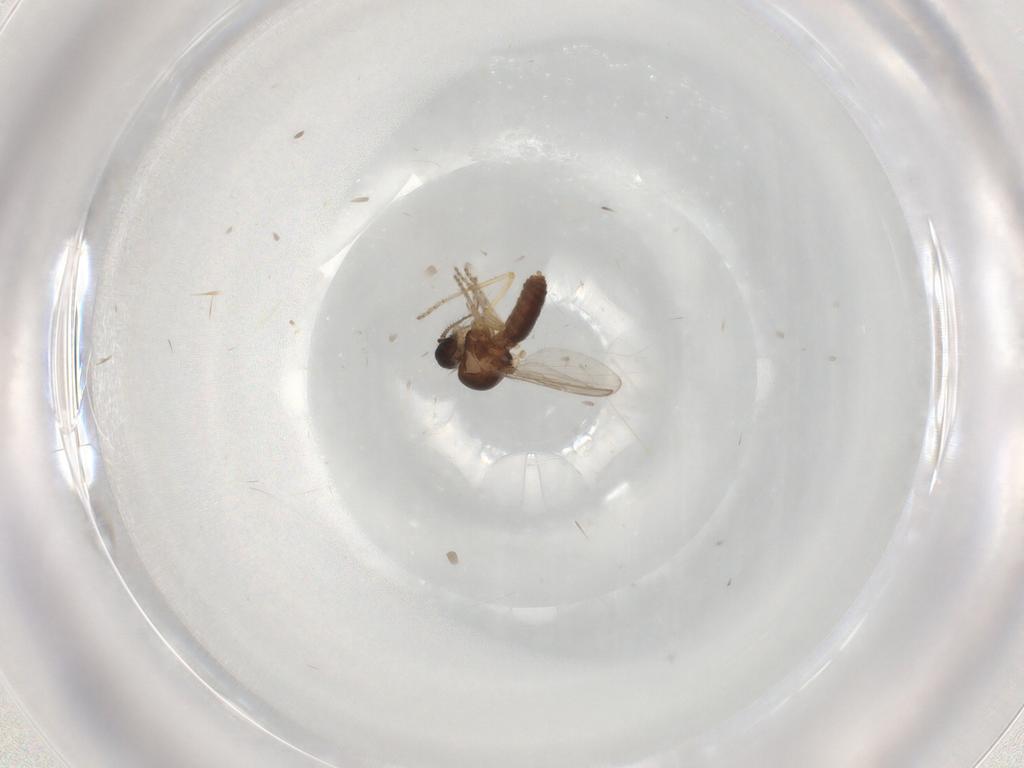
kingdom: Animalia
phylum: Arthropoda
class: Insecta
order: Diptera
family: Ceratopogonidae
